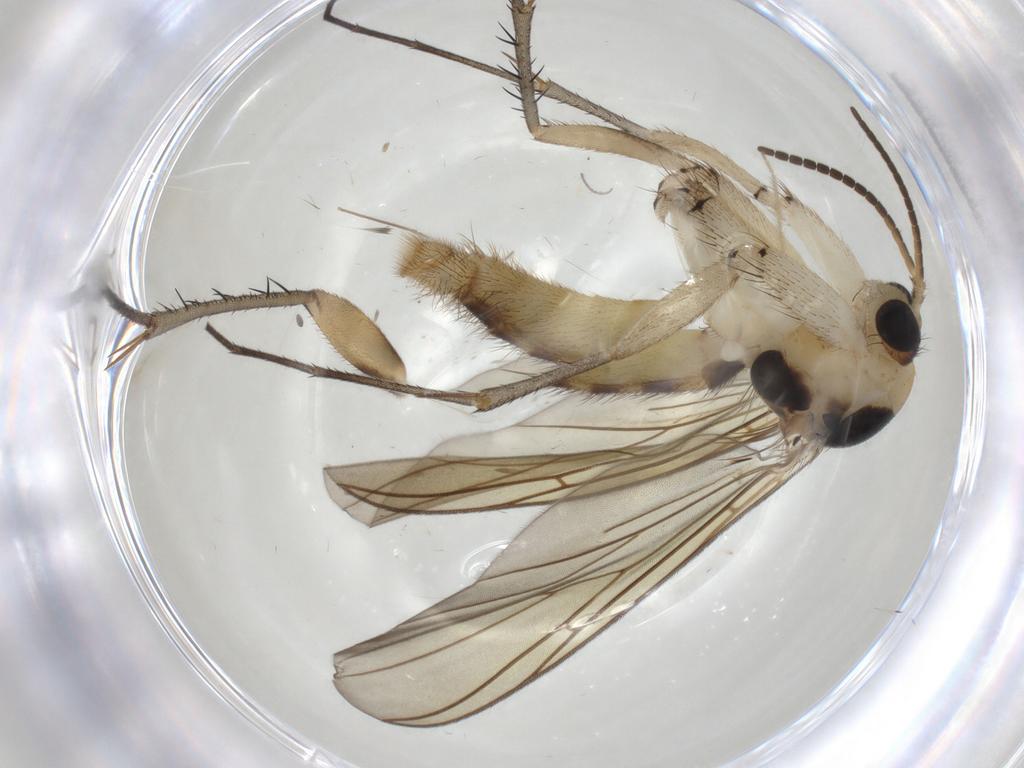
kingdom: Animalia
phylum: Arthropoda
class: Insecta
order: Diptera
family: Mycetophilidae
